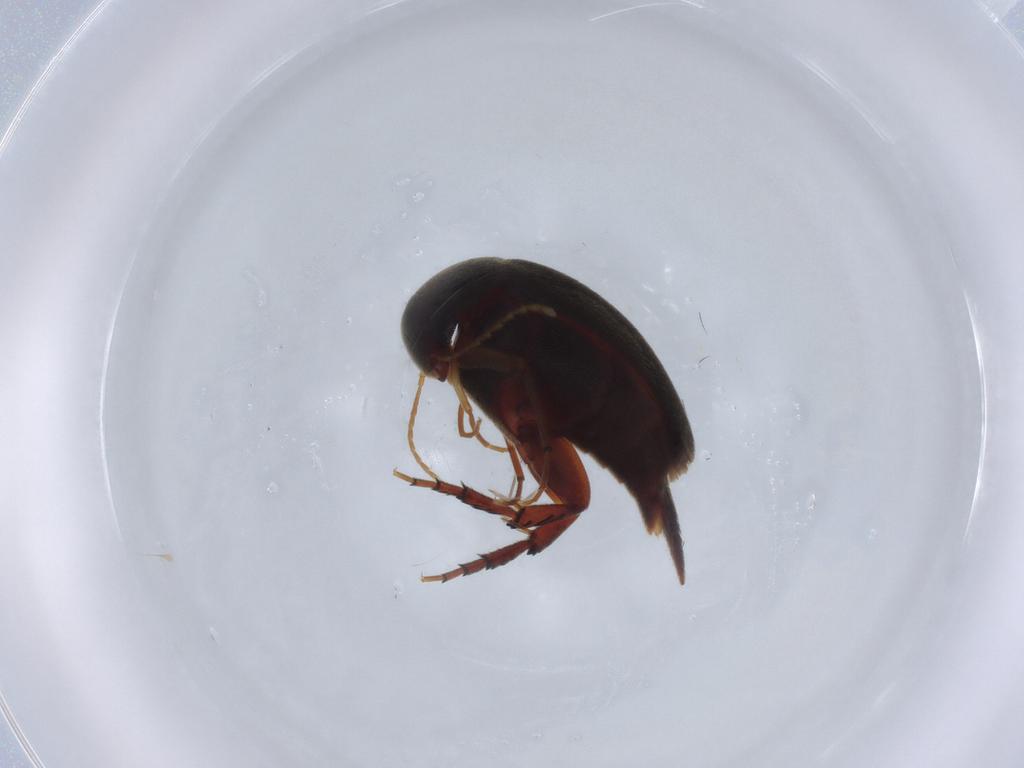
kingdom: Animalia
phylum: Arthropoda
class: Insecta
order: Coleoptera
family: Mordellidae
